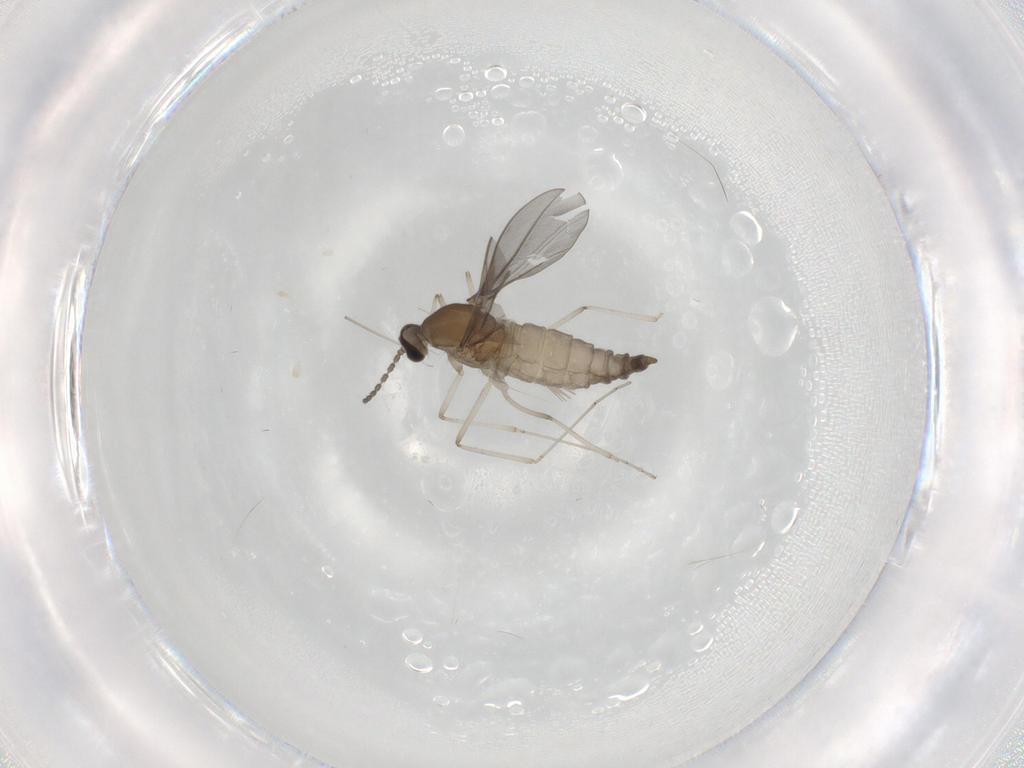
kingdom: Animalia
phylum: Arthropoda
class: Insecta
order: Diptera
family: Cecidomyiidae
